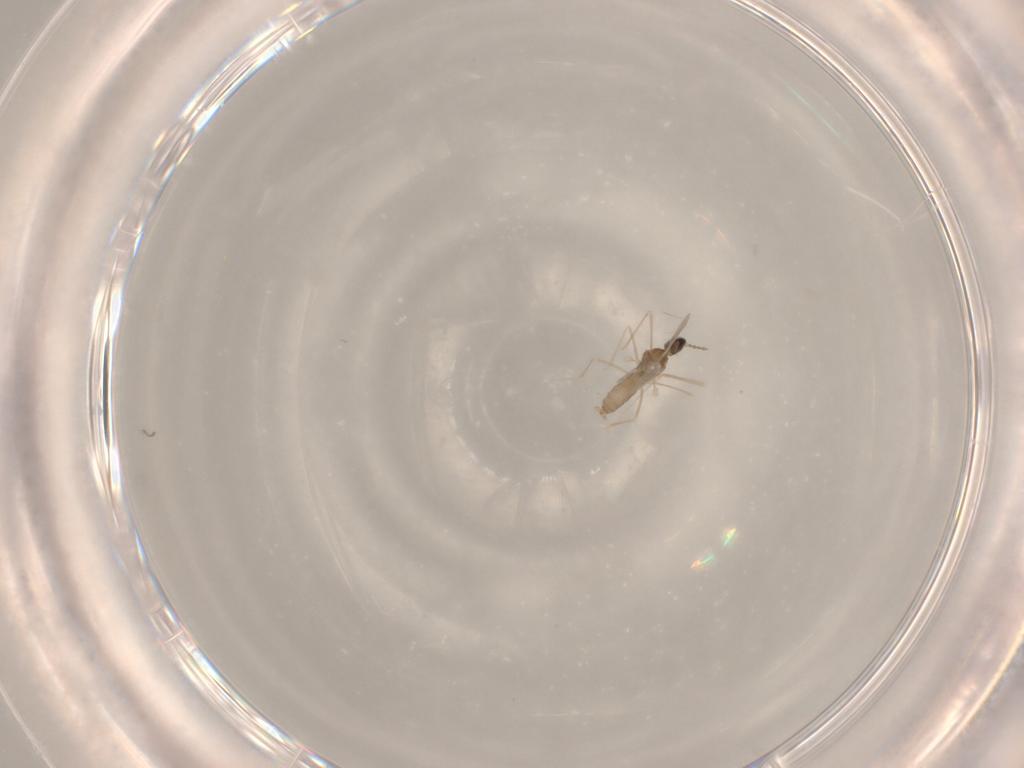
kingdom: Animalia
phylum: Arthropoda
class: Insecta
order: Diptera
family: Cecidomyiidae
